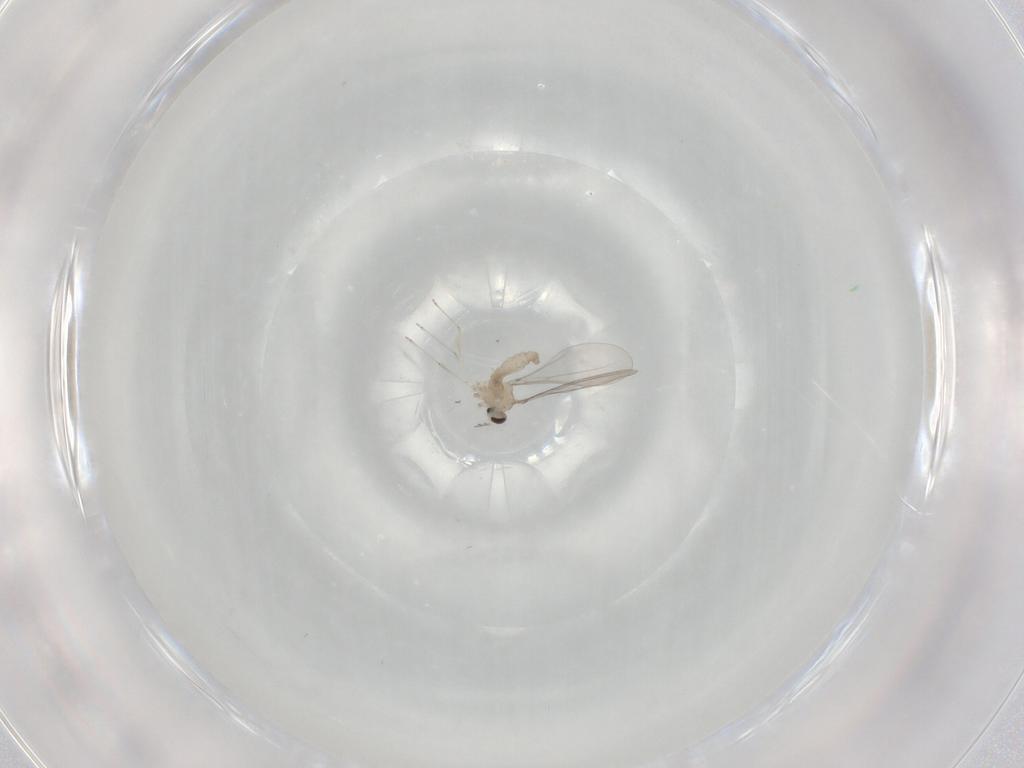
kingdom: Animalia
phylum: Arthropoda
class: Insecta
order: Diptera
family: Cecidomyiidae
